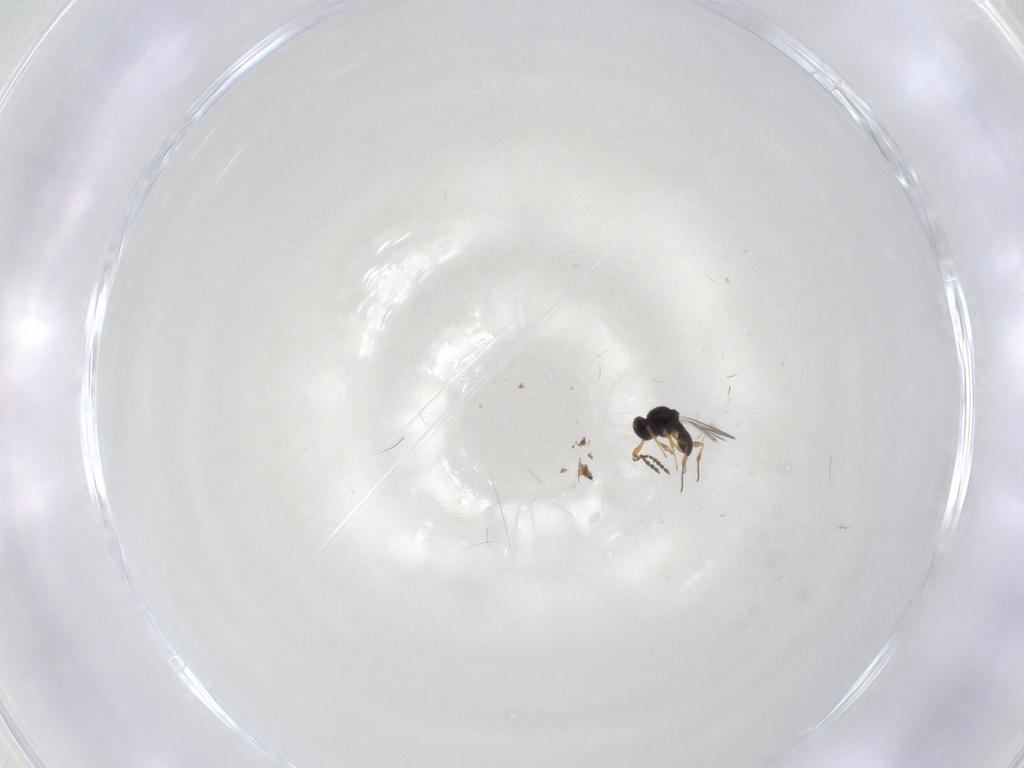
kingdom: Animalia
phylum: Arthropoda
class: Insecta
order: Hymenoptera
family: Platygastridae
